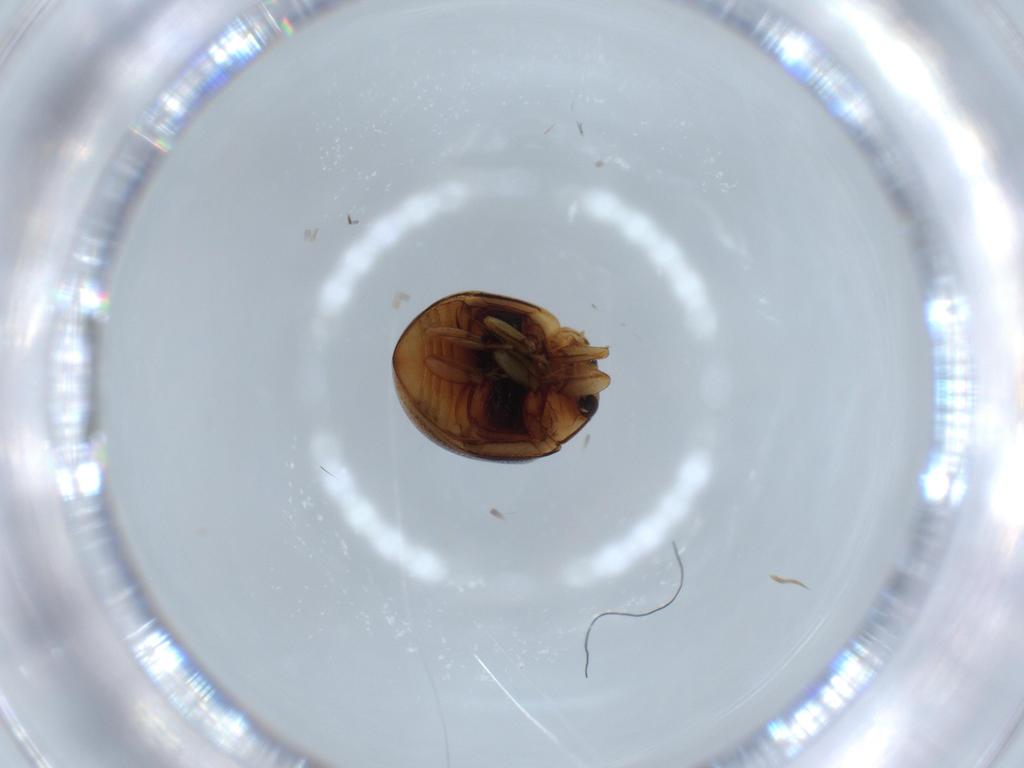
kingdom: Animalia
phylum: Arthropoda
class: Insecta
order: Coleoptera
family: Coccinellidae
